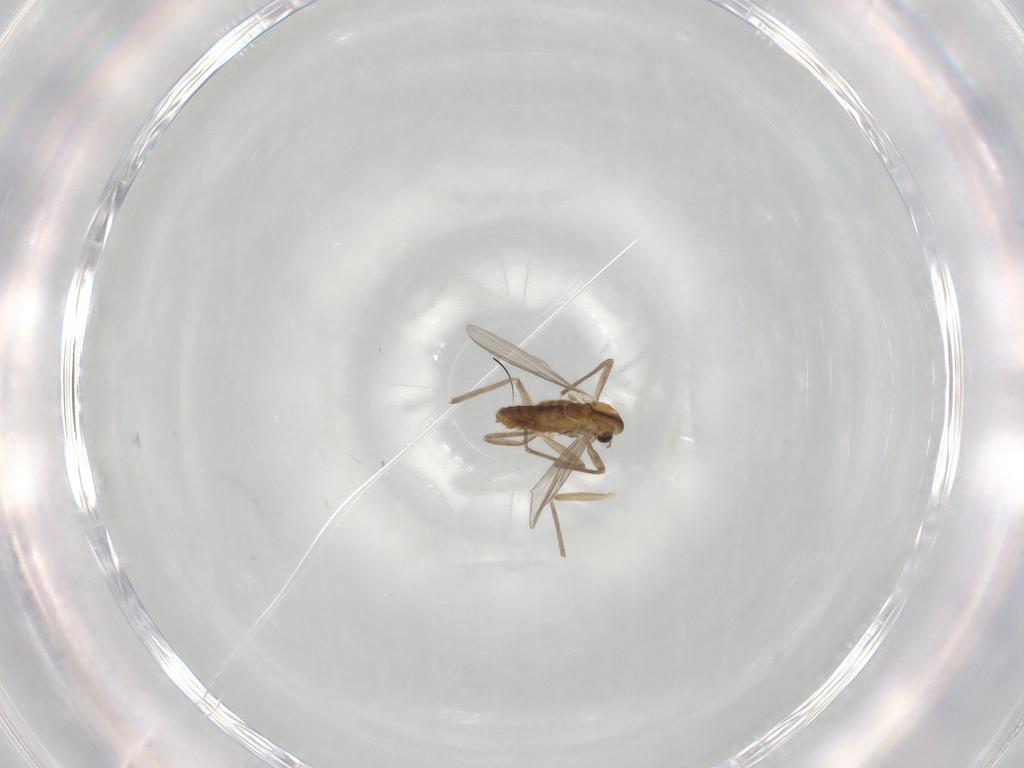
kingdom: Animalia
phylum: Arthropoda
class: Insecta
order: Diptera
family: Chironomidae
